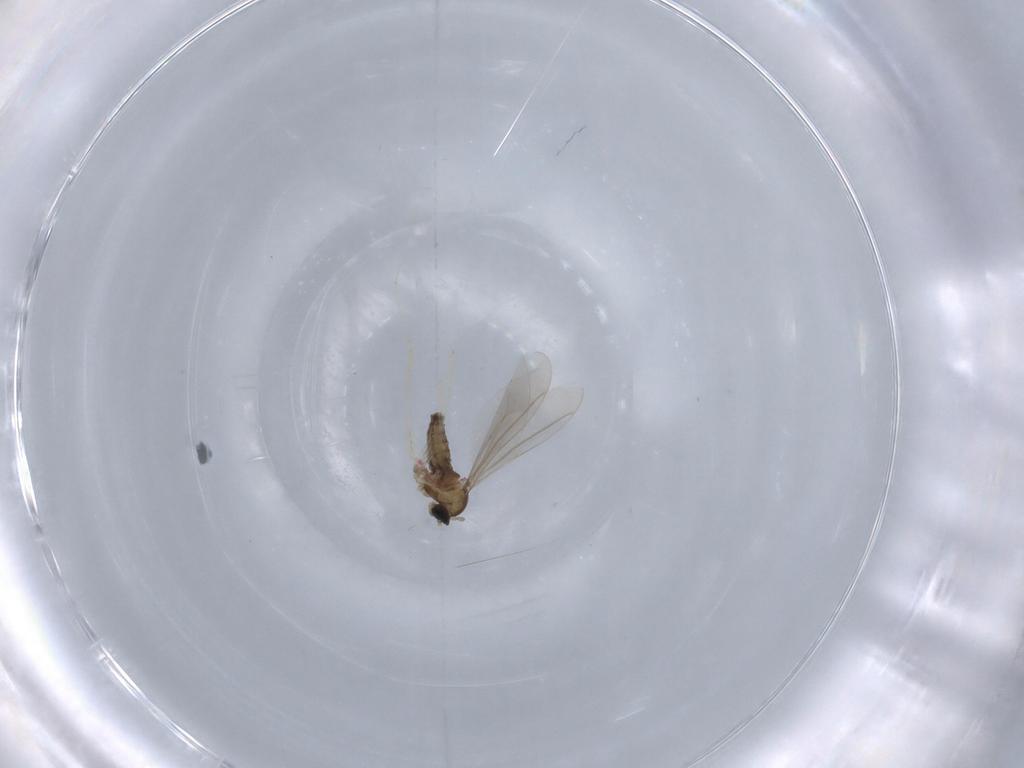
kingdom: Animalia
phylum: Arthropoda
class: Insecta
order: Diptera
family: Cecidomyiidae
